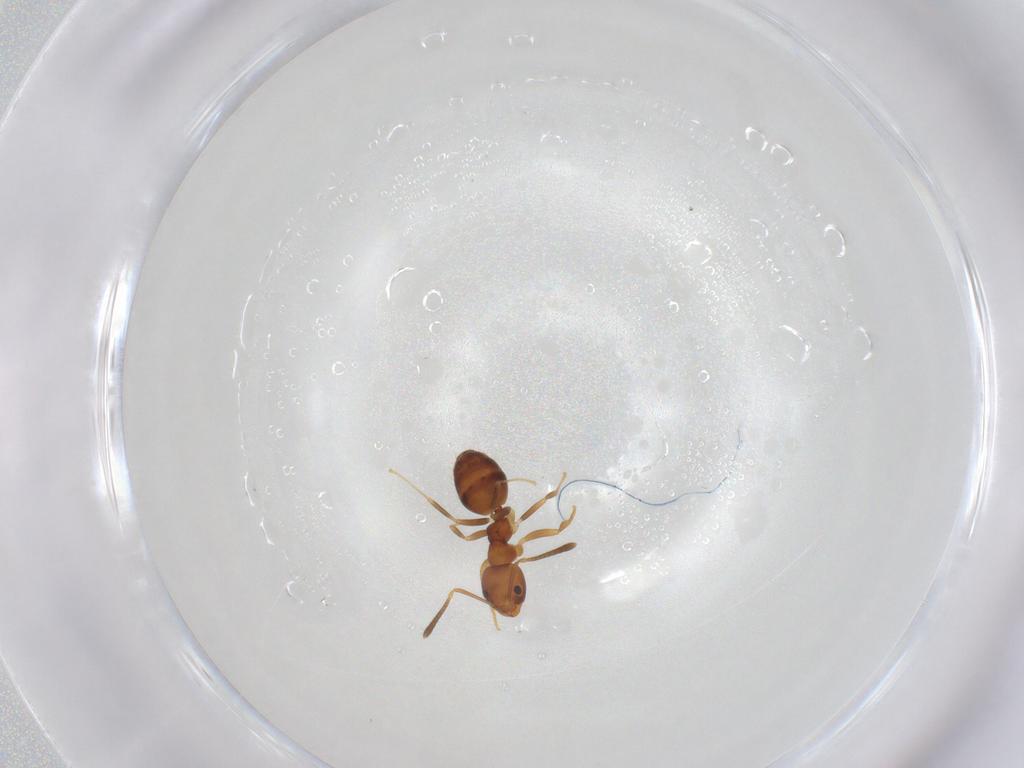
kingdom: Animalia
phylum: Arthropoda
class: Insecta
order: Hymenoptera
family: Formicidae
